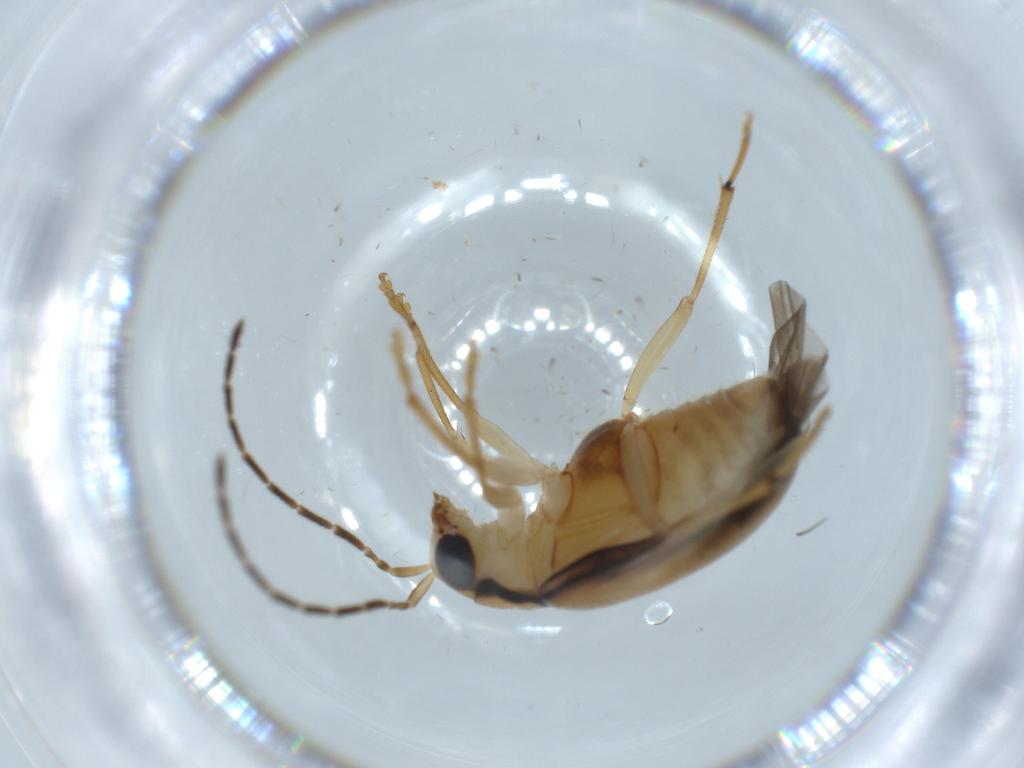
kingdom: Animalia
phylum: Arthropoda
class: Insecta
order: Coleoptera
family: Chrysomelidae
